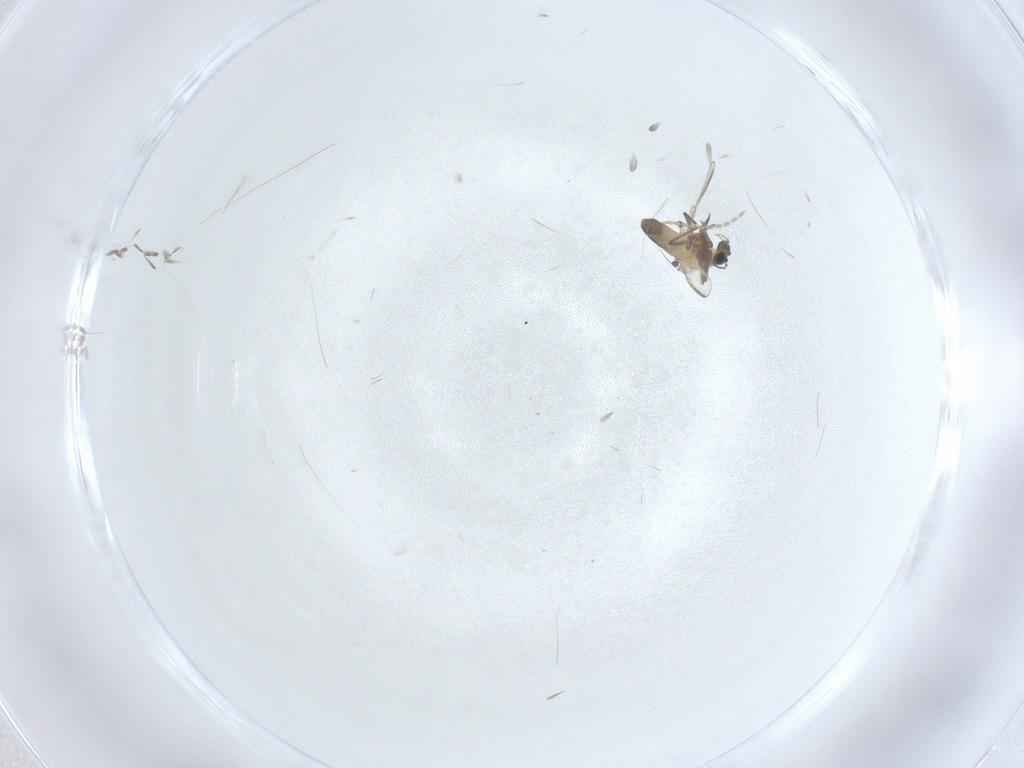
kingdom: Animalia
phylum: Arthropoda
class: Insecta
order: Diptera
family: Chironomidae
